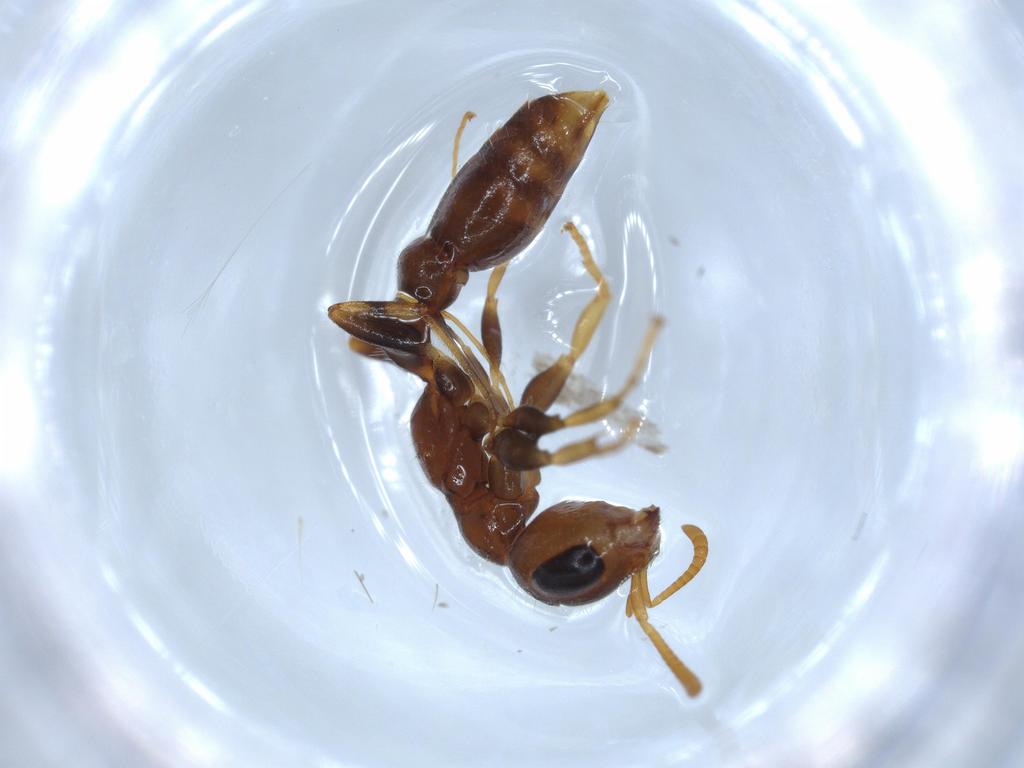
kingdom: Animalia
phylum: Arthropoda
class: Insecta
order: Hymenoptera
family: Formicidae
